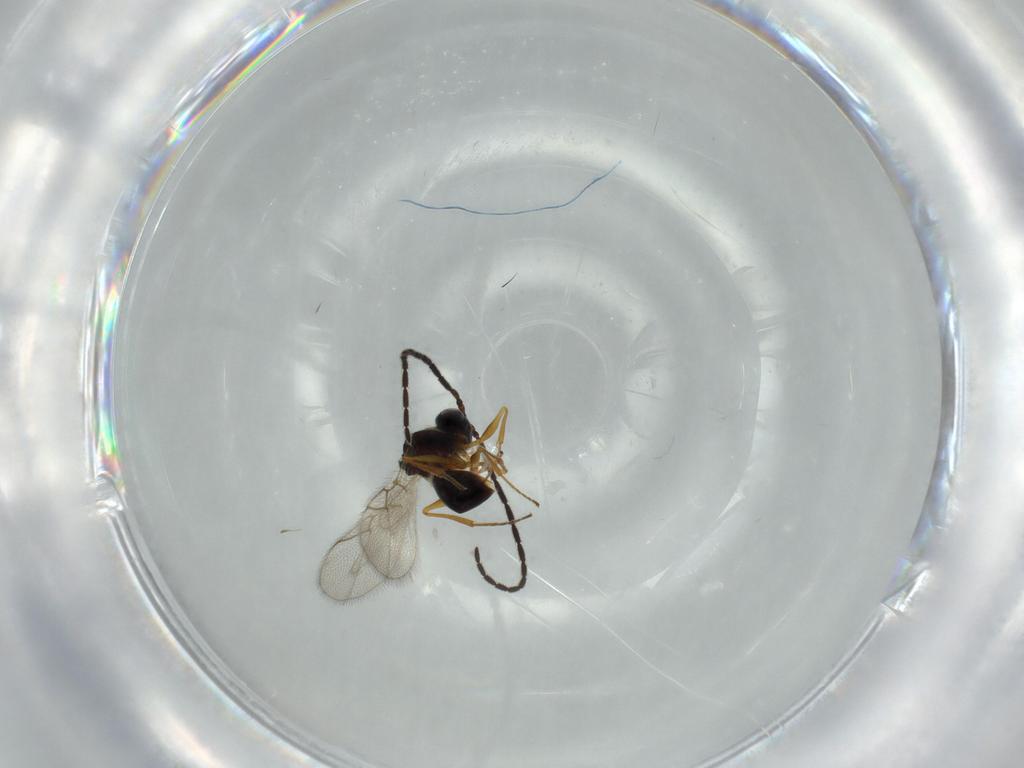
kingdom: Animalia
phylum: Arthropoda
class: Insecta
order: Hymenoptera
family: Figitidae
